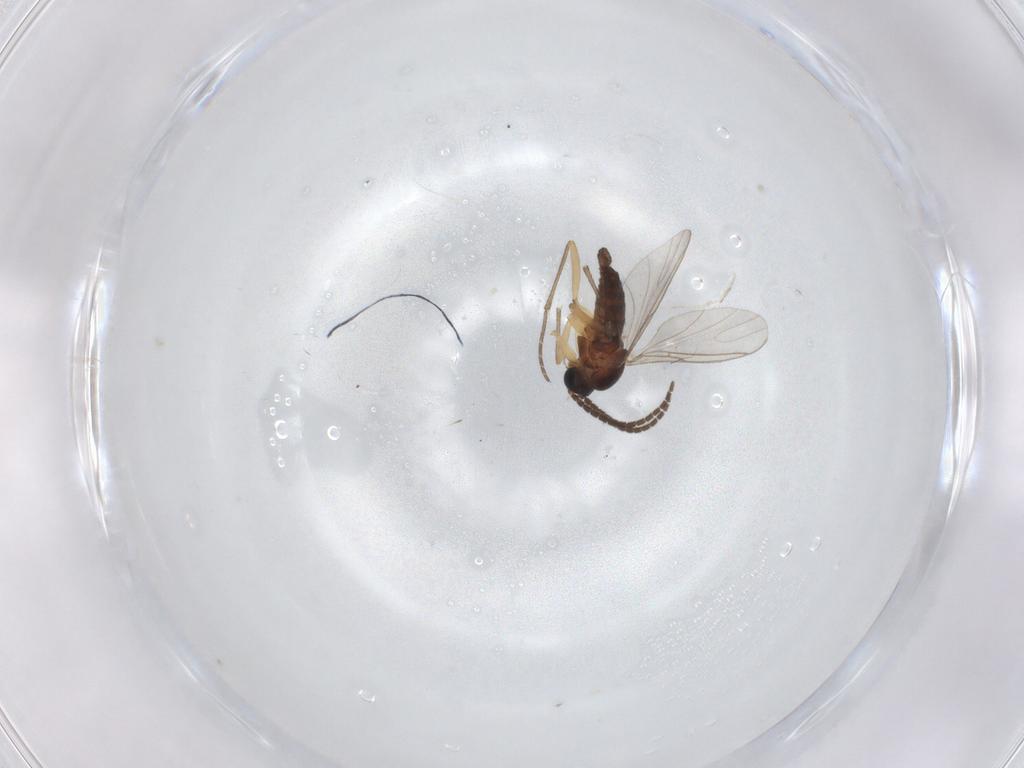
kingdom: Animalia
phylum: Arthropoda
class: Insecta
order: Diptera
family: Sciaridae
